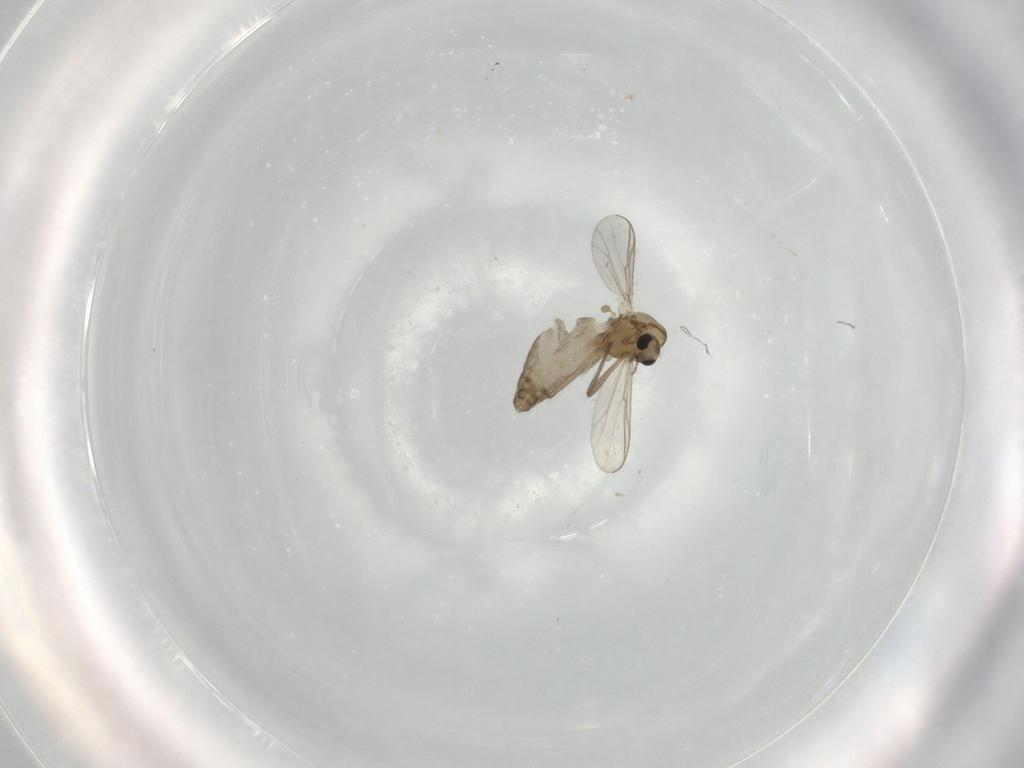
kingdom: Animalia
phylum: Arthropoda
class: Insecta
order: Diptera
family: Chironomidae
